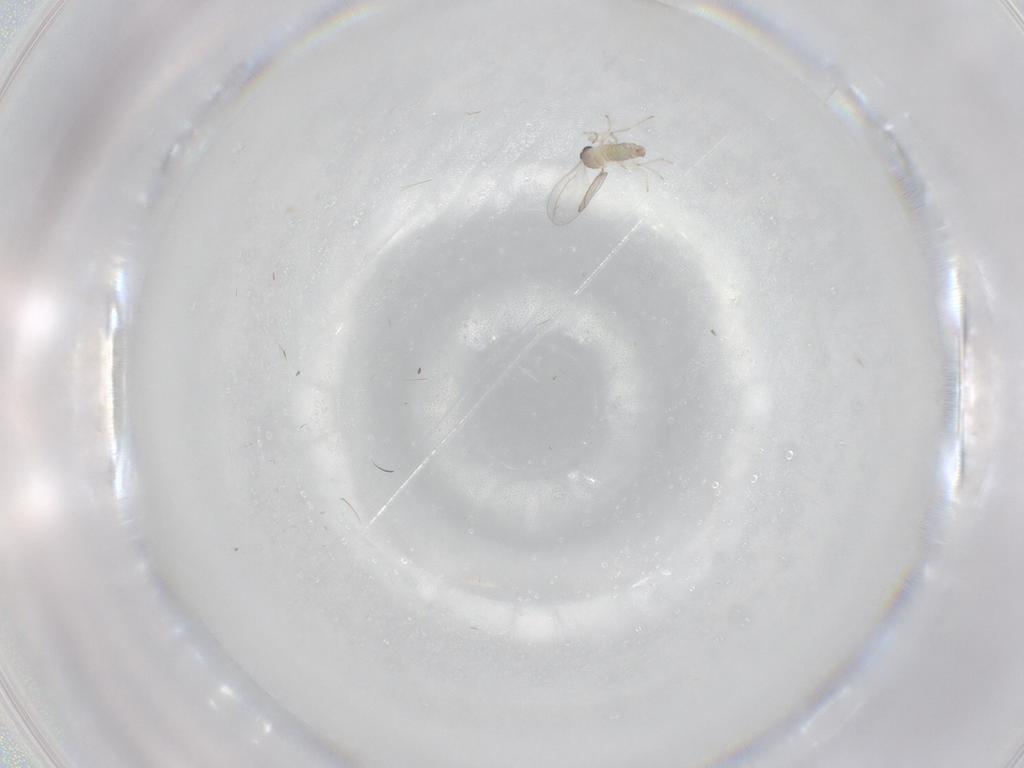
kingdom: Animalia
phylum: Arthropoda
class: Insecta
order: Diptera
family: Cecidomyiidae
